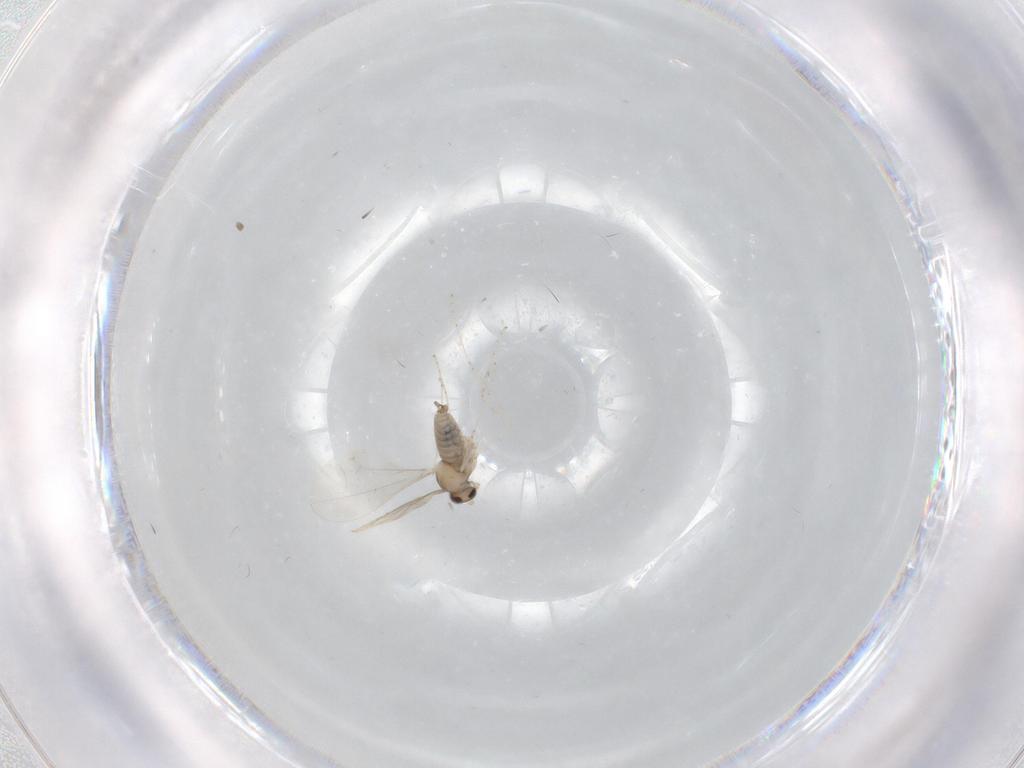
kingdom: Animalia
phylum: Arthropoda
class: Insecta
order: Diptera
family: Cecidomyiidae
